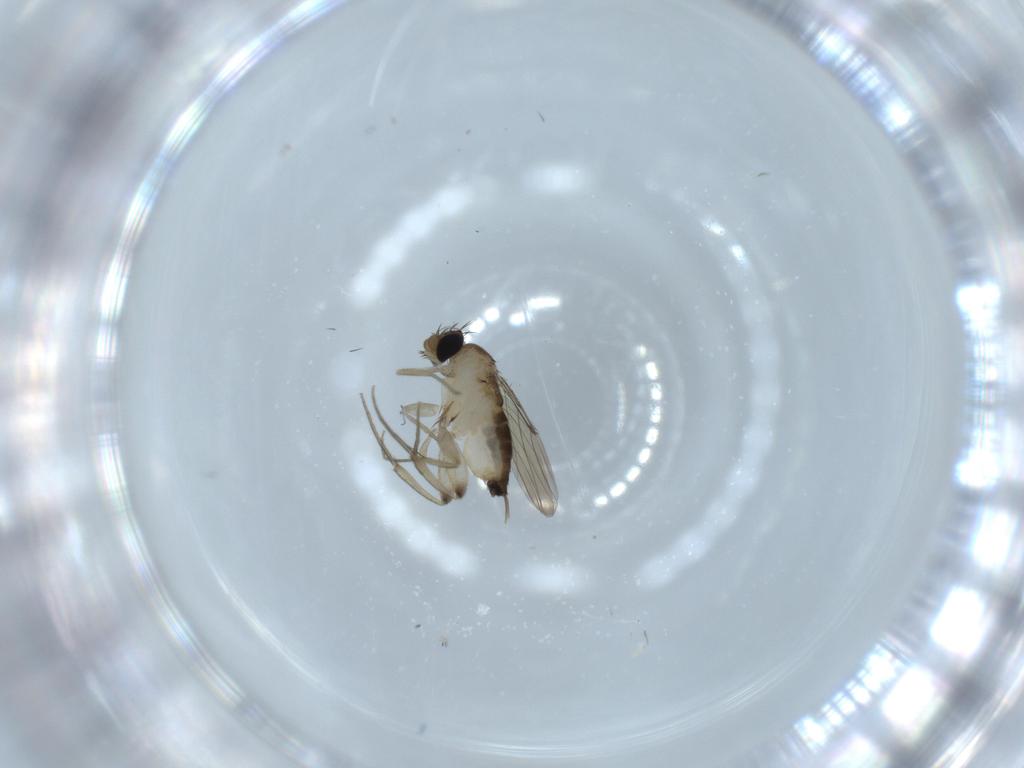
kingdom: Animalia
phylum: Arthropoda
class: Insecta
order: Diptera
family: Phoridae
